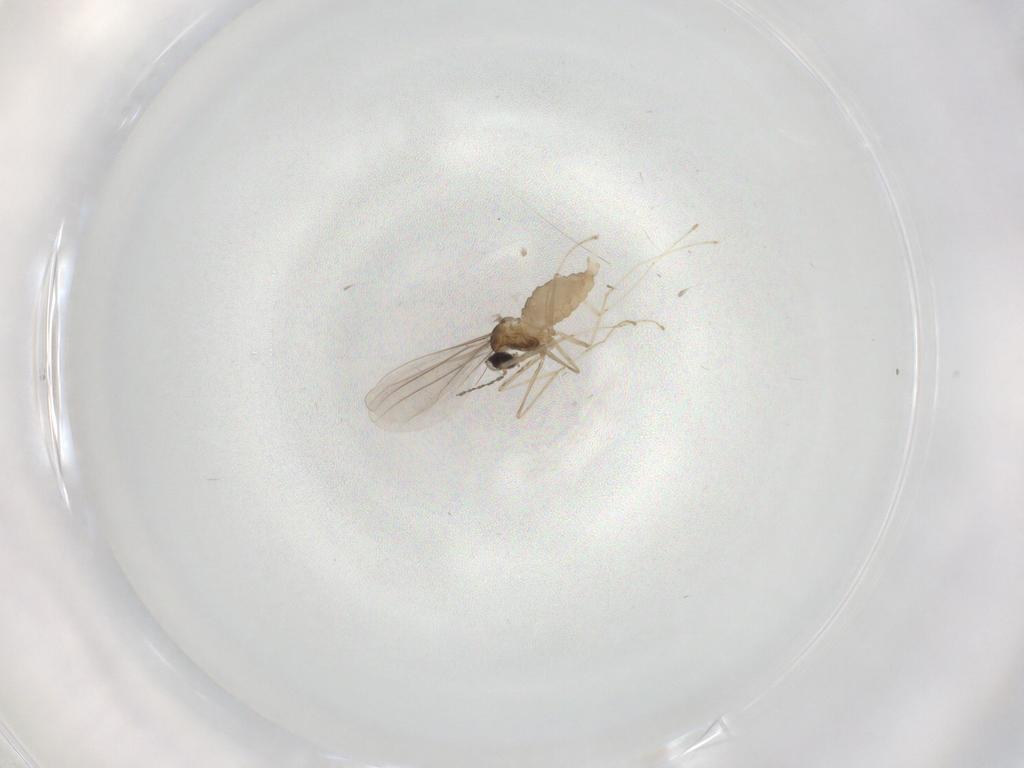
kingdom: Animalia
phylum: Arthropoda
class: Insecta
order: Diptera
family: Cecidomyiidae
